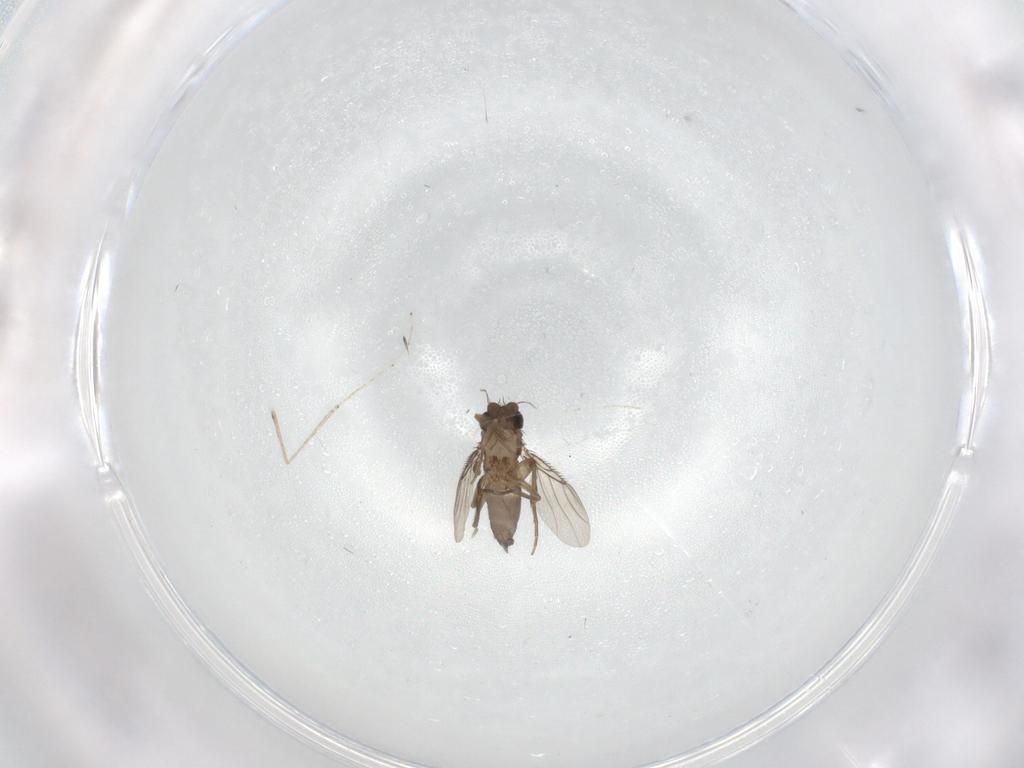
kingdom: Animalia
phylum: Arthropoda
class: Insecta
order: Diptera
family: Phoridae
